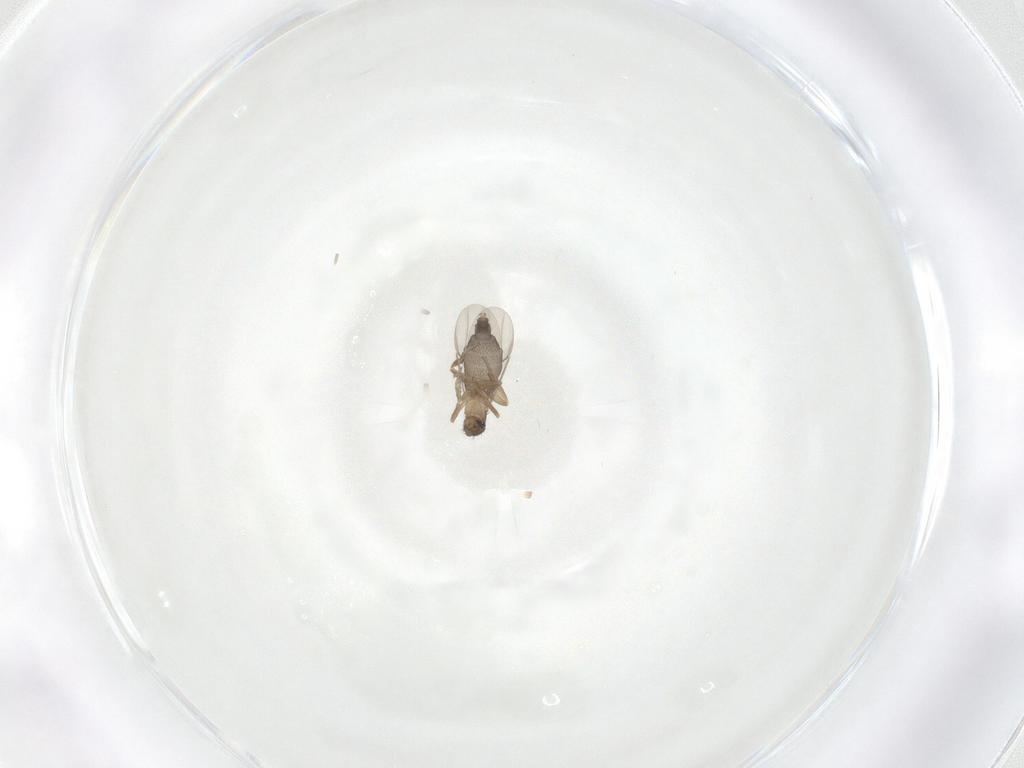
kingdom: Animalia
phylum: Arthropoda
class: Insecta
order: Diptera
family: Phoridae
